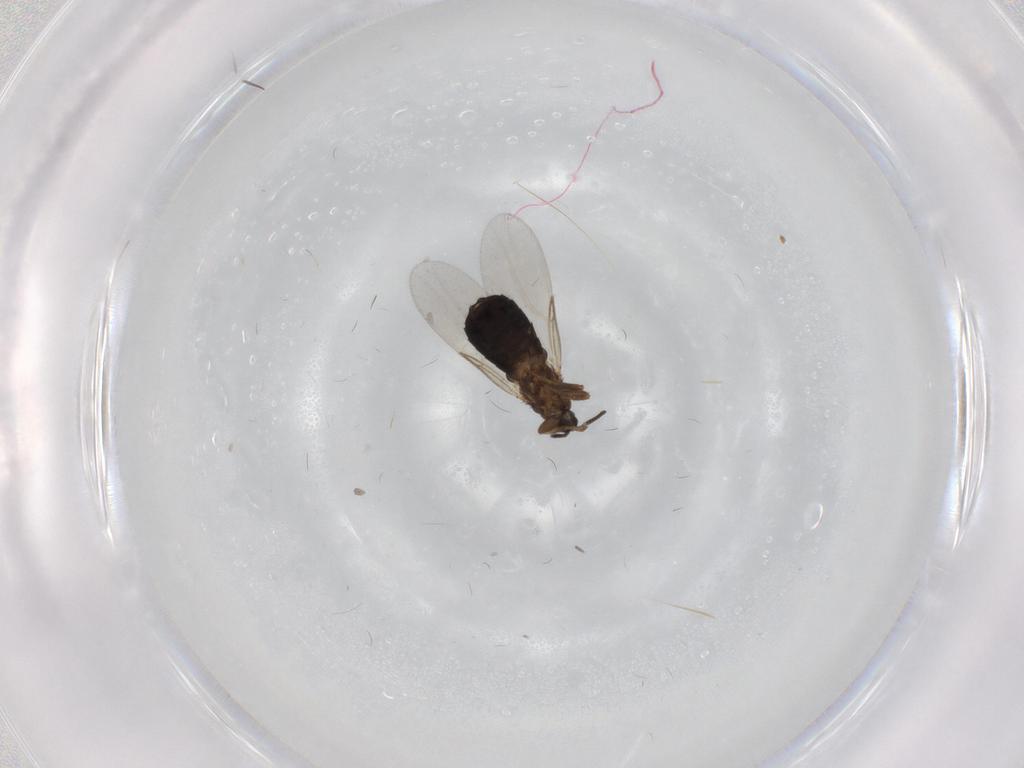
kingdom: Animalia
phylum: Arthropoda
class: Insecta
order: Diptera
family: Scatopsidae
